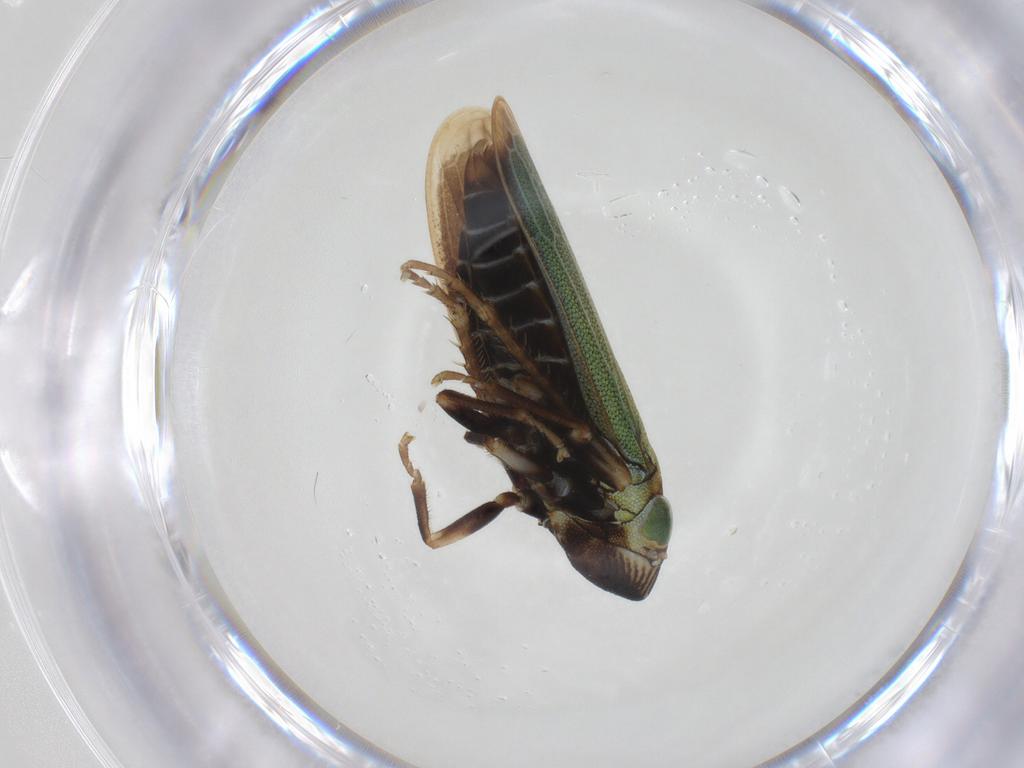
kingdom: Animalia
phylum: Arthropoda
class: Insecta
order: Hemiptera
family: Cicadellidae
